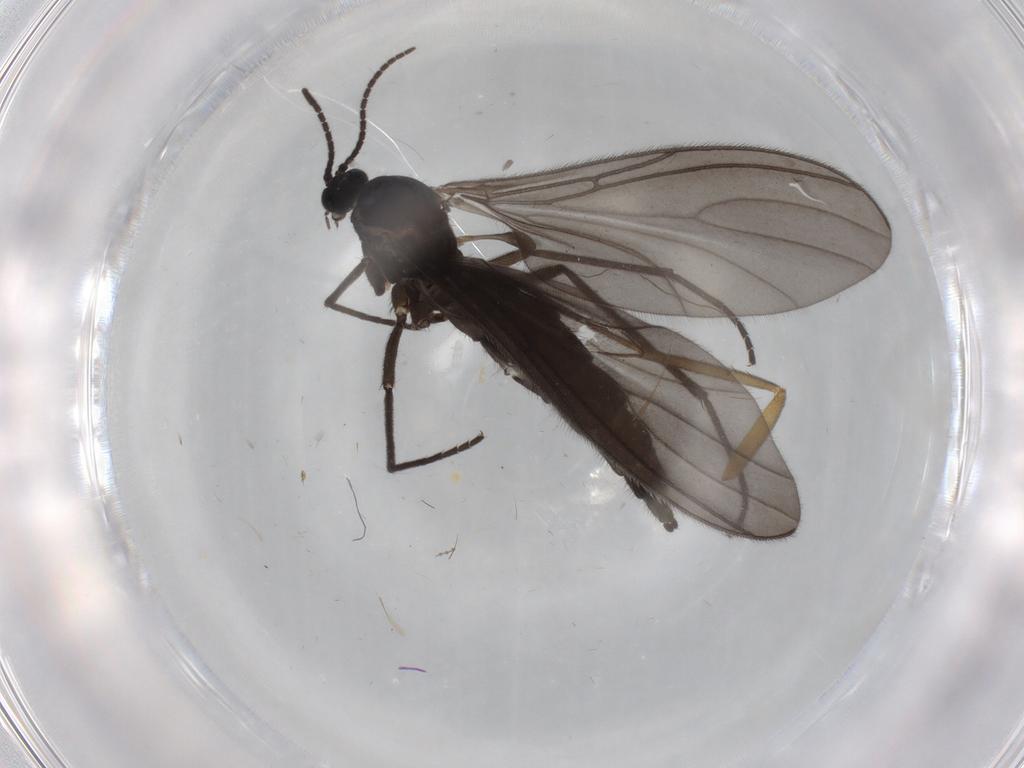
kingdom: Animalia
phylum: Arthropoda
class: Insecta
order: Diptera
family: Sciaridae
